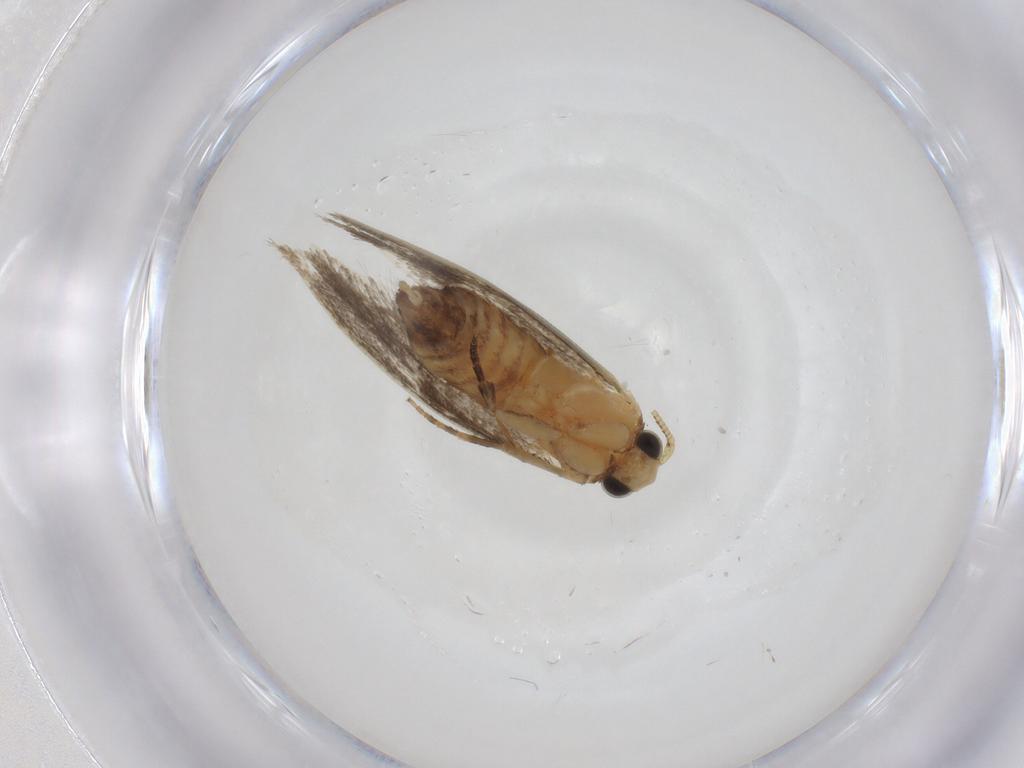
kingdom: Animalia
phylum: Arthropoda
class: Insecta
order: Lepidoptera
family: Tineidae
